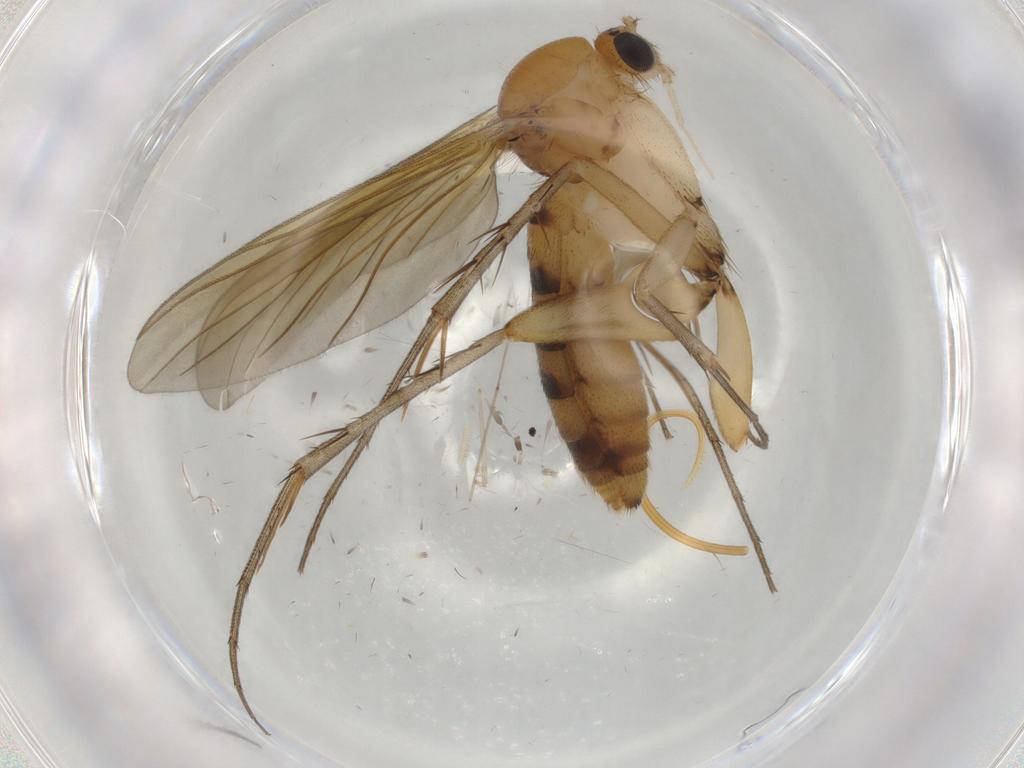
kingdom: Animalia
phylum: Arthropoda
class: Insecta
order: Diptera
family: Mycetophilidae
